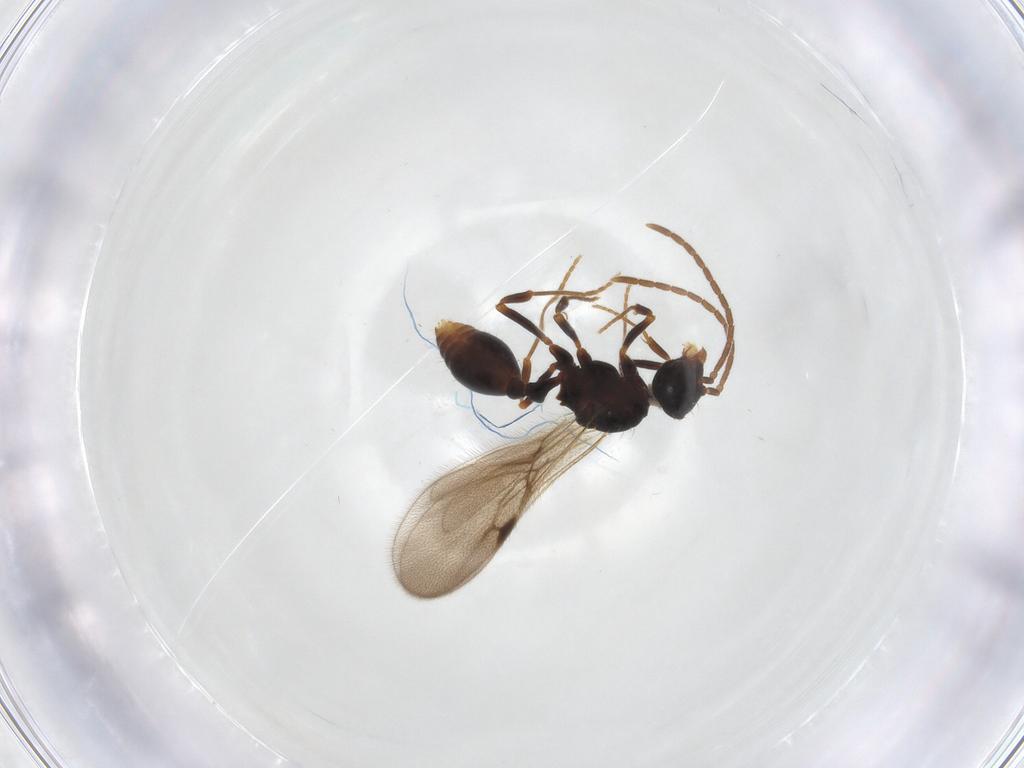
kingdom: Animalia
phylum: Arthropoda
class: Insecta
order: Hymenoptera
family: Formicidae
